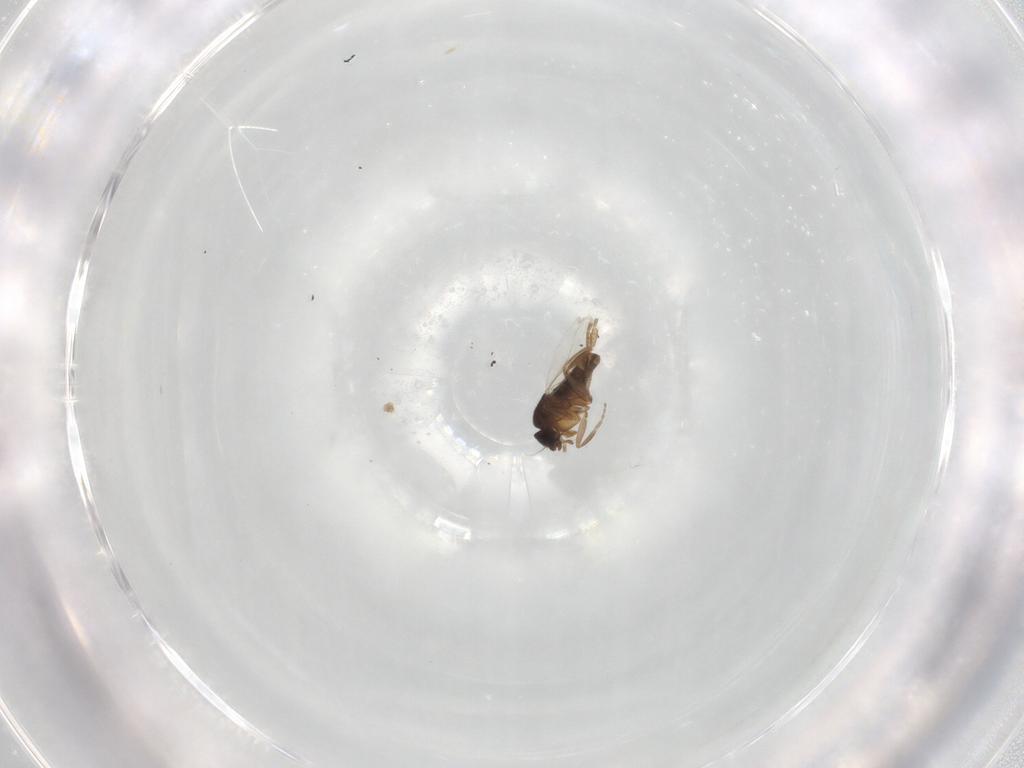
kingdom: Animalia
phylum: Arthropoda
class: Insecta
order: Diptera
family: Glossinidae
